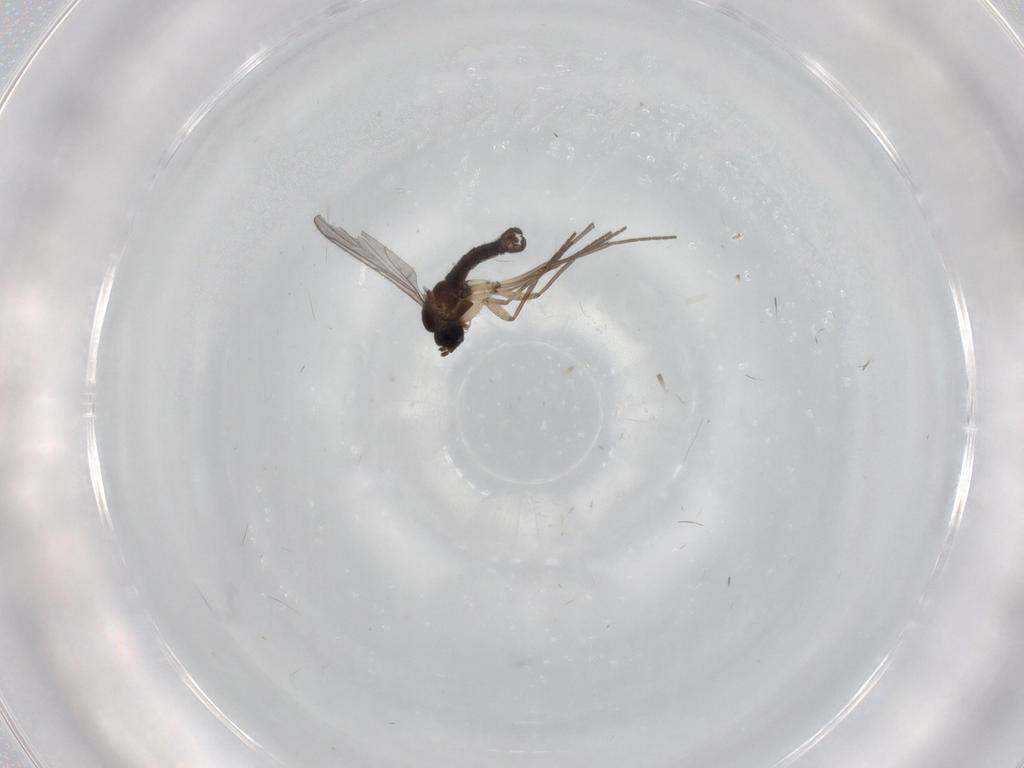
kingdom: Animalia
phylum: Arthropoda
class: Insecta
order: Diptera
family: Sciaridae
